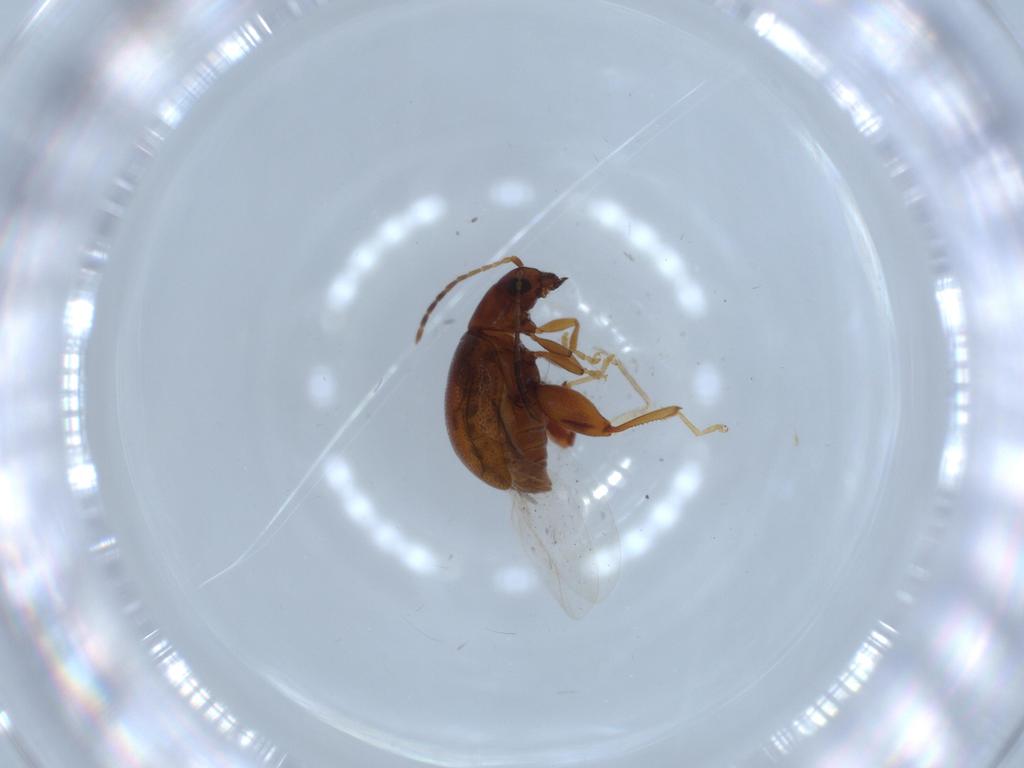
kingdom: Animalia
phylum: Arthropoda
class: Insecta
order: Coleoptera
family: Chrysomelidae
